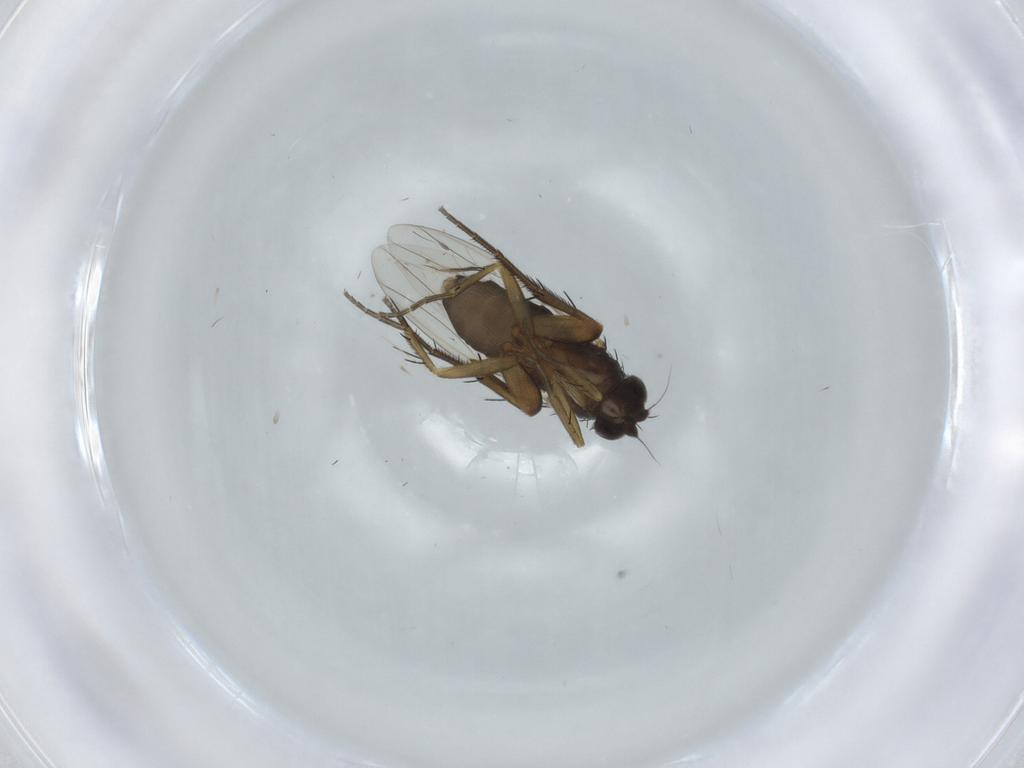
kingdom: Animalia
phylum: Arthropoda
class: Insecta
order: Diptera
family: Phoridae
